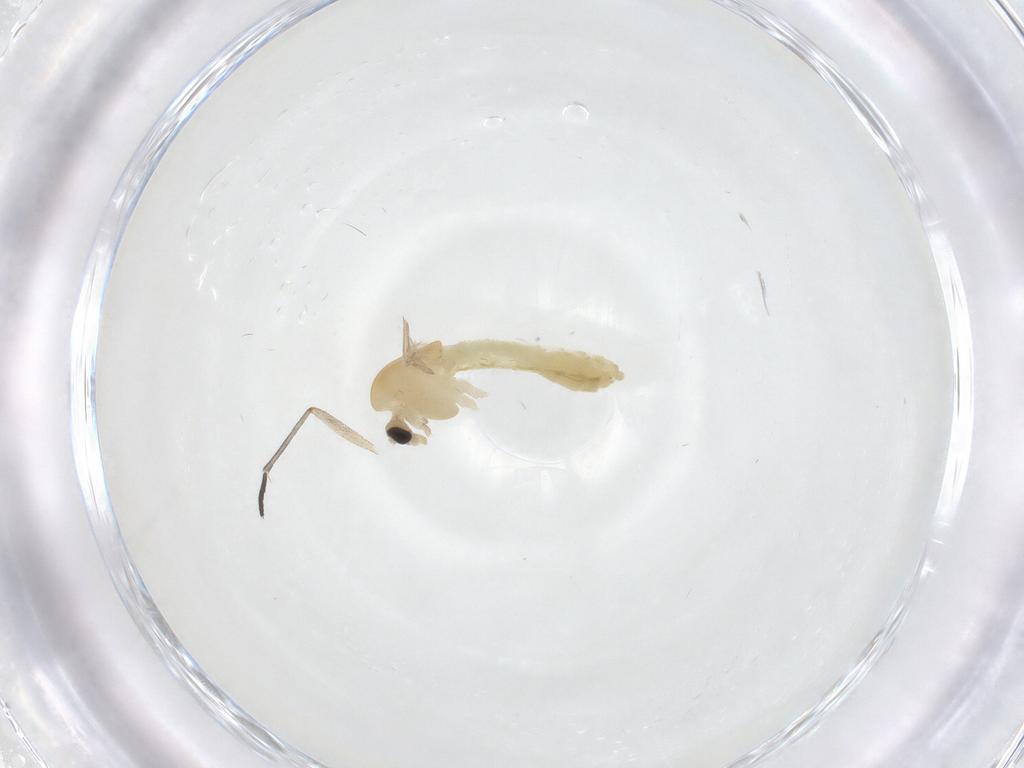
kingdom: Animalia
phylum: Arthropoda
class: Insecta
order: Diptera
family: Chironomidae
